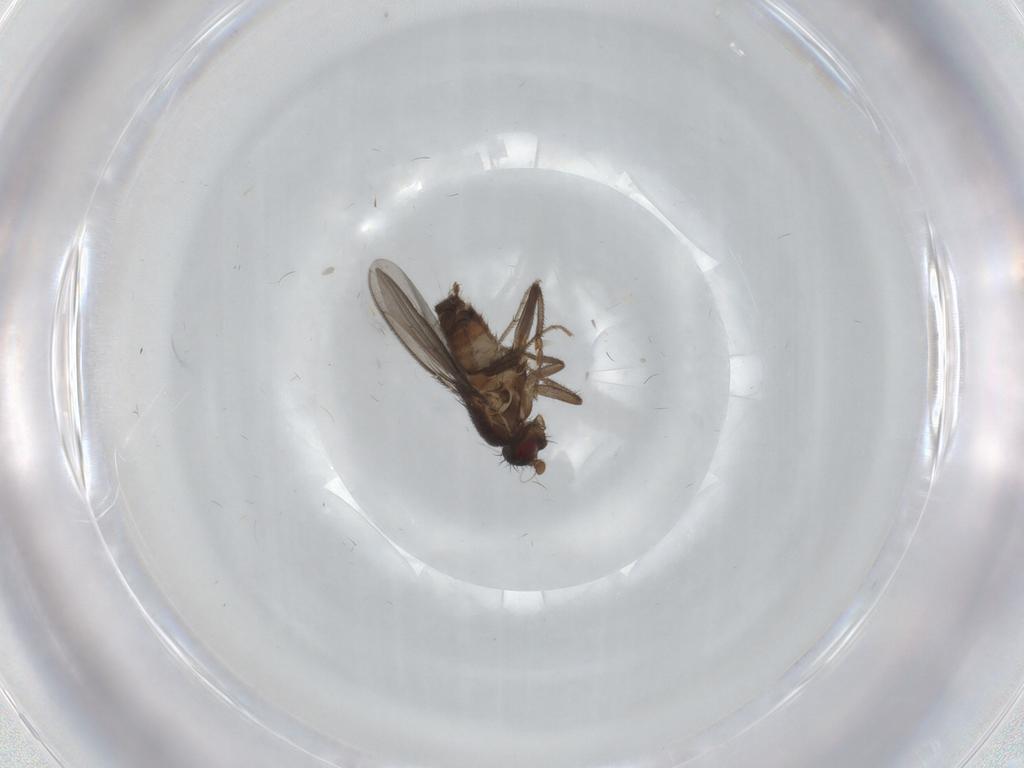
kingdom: Animalia
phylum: Arthropoda
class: Insecta
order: Diptera
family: Sphaeroceridae
